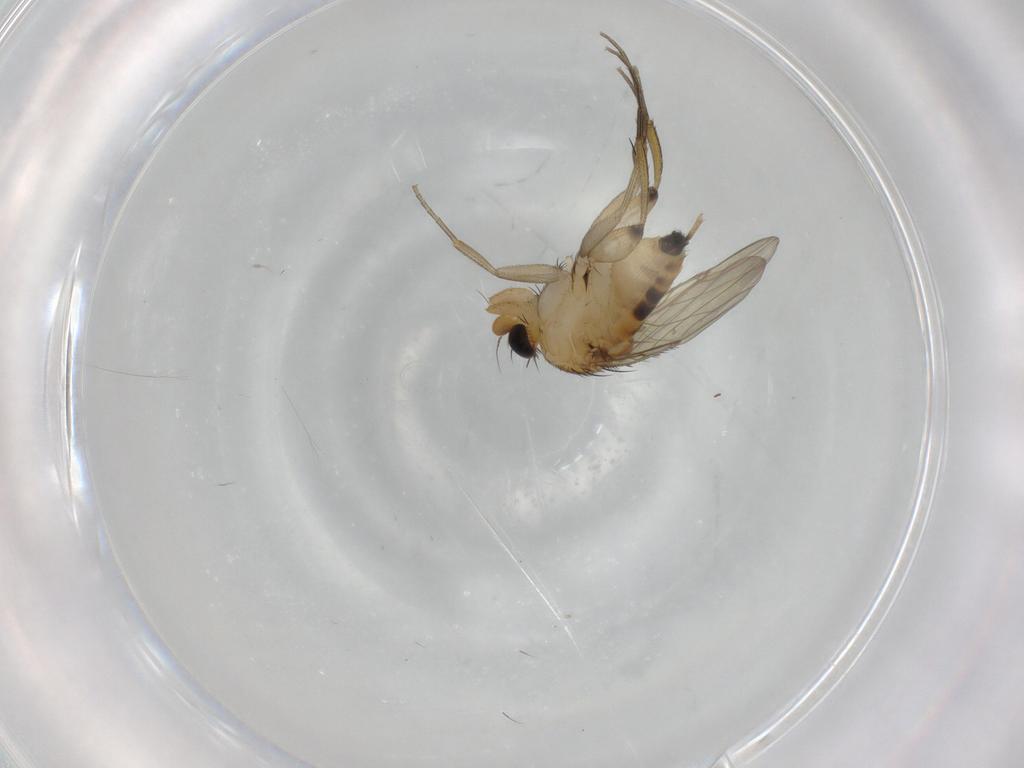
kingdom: Animalia
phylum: Arthropoda
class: Insecta
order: Diptera
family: Phoridae
